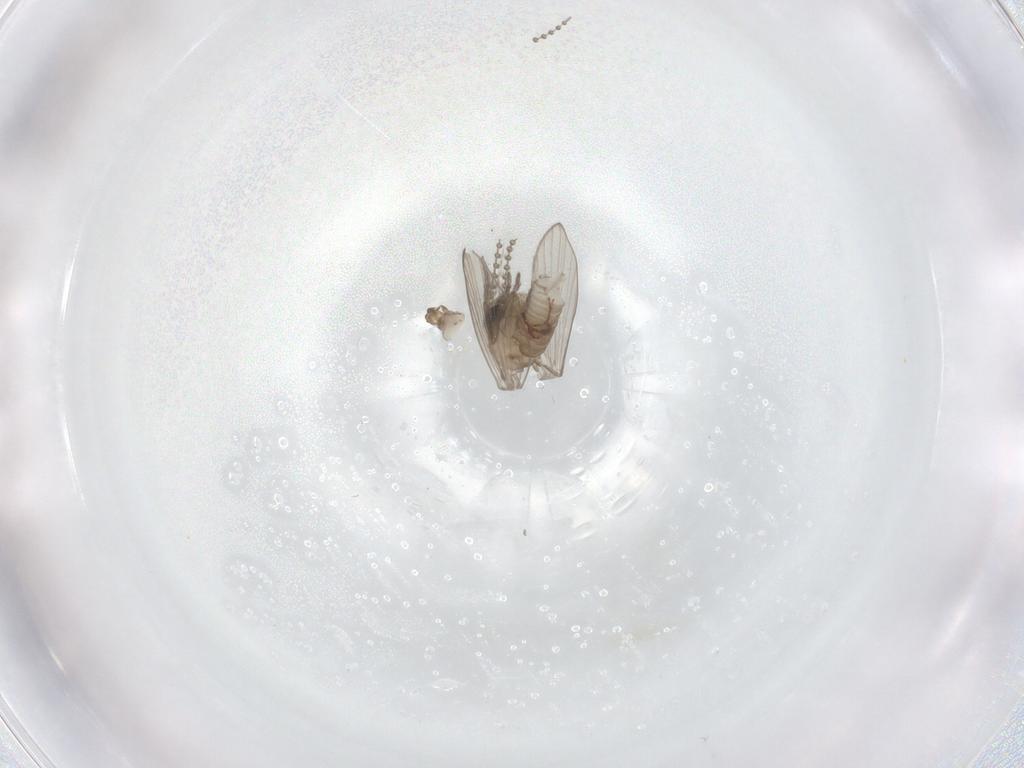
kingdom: Animalia
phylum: Arthropoda
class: Insecta
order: Diptera
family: Psychodidae
